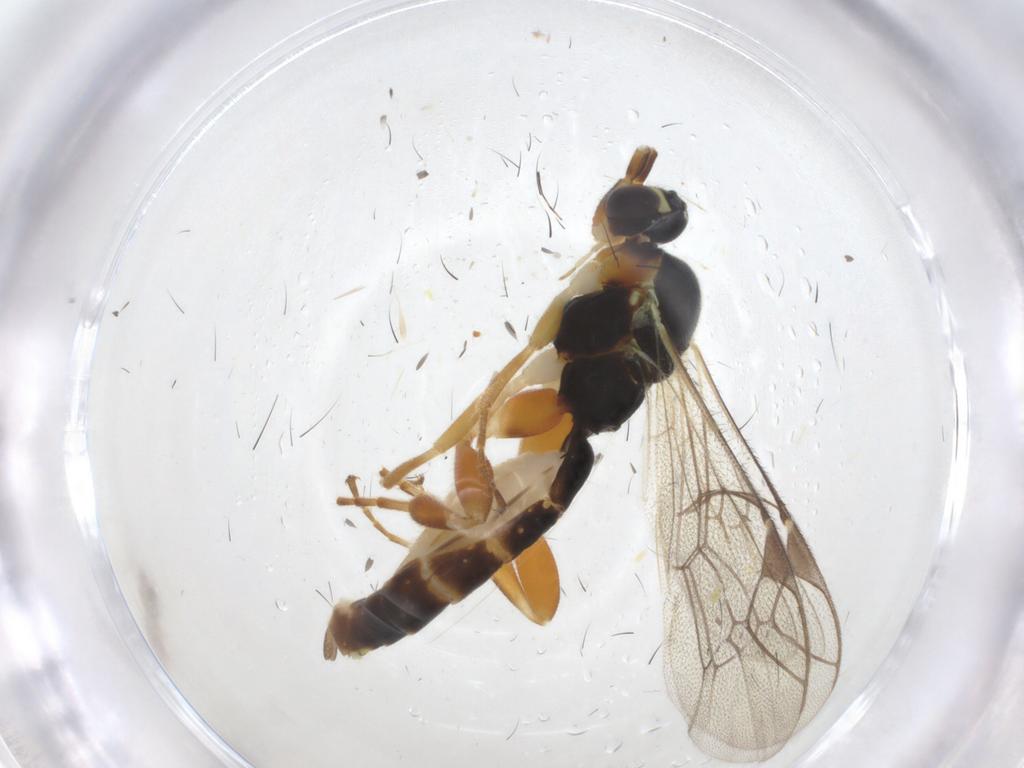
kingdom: Animalia
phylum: Arthropoda
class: Insecta
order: Hymenoptera
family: Ichneumonidae
